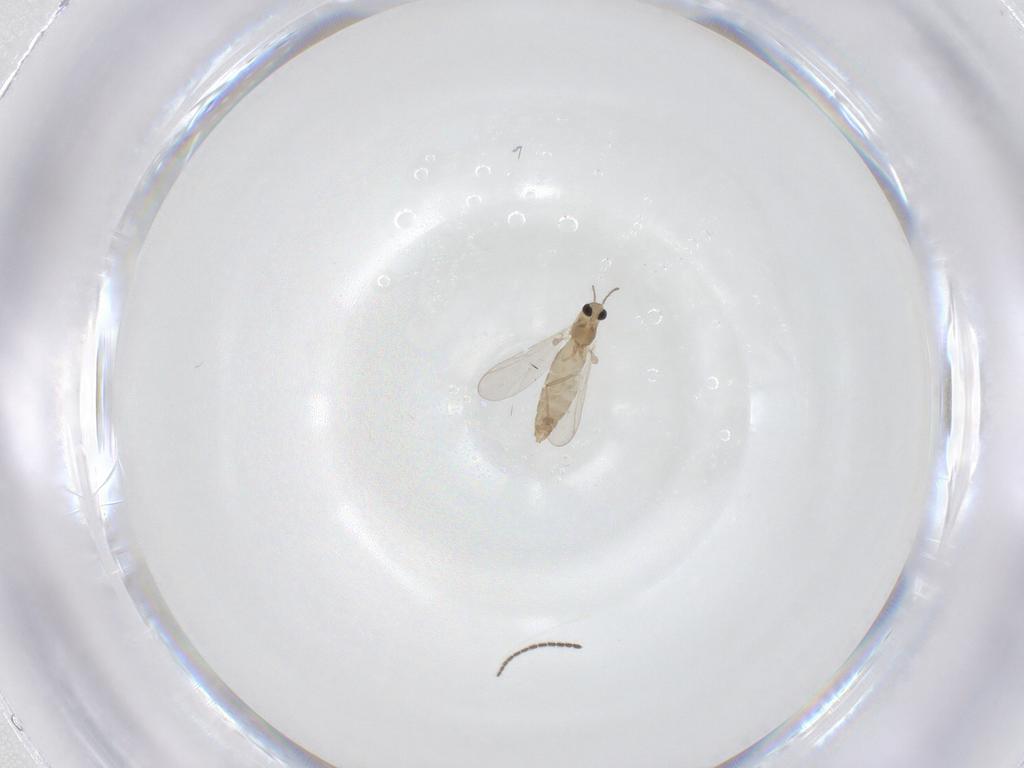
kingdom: Animalia
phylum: Arthropoda
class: Insecta
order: Diptera
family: Chironomidae
